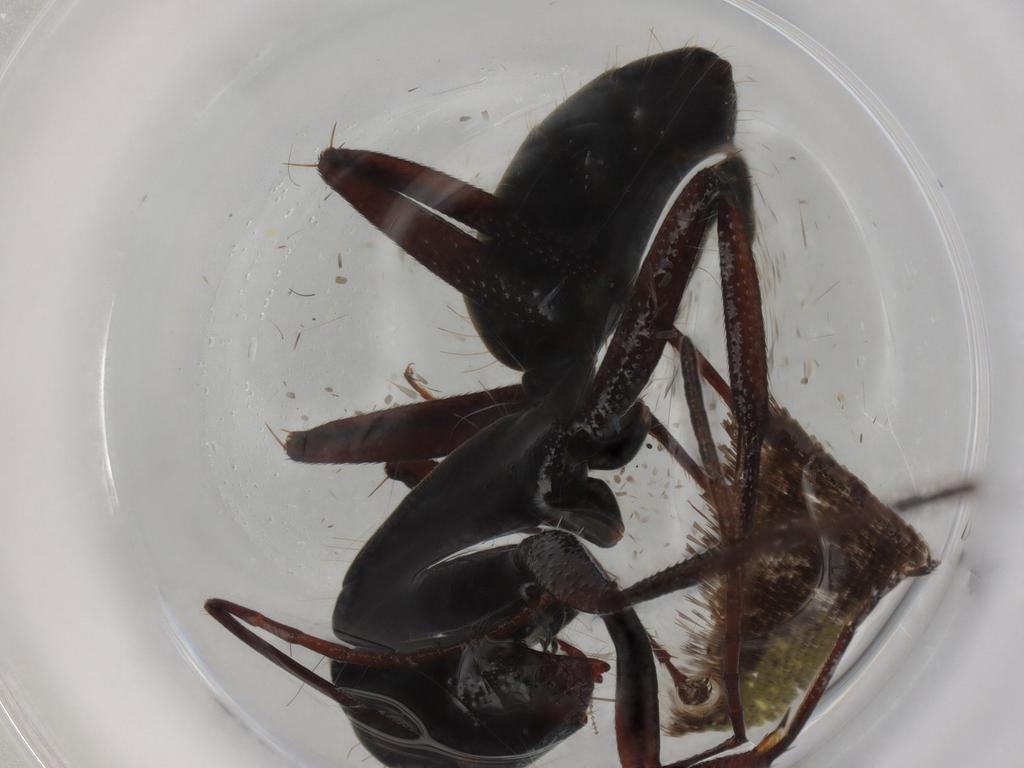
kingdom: Animalia
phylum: Arthropoda
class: Insecta
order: Hymenoptera
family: Formicidae
